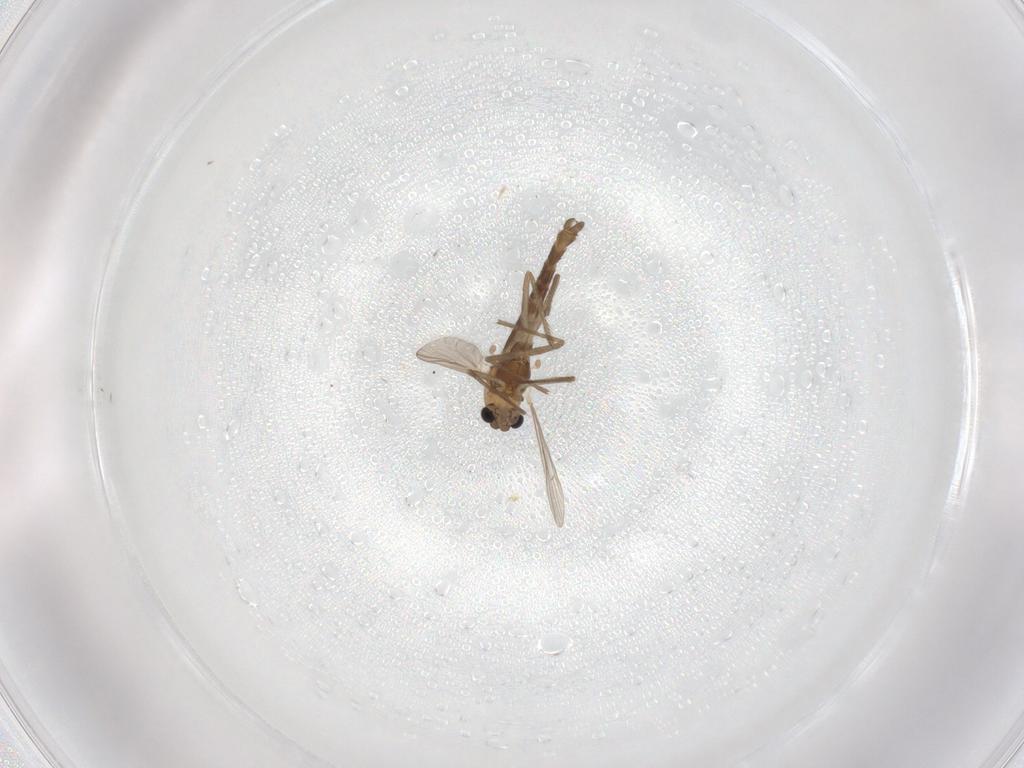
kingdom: Animalia
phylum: Arthropoda
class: Insecta
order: Diptera
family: Chironomidae
